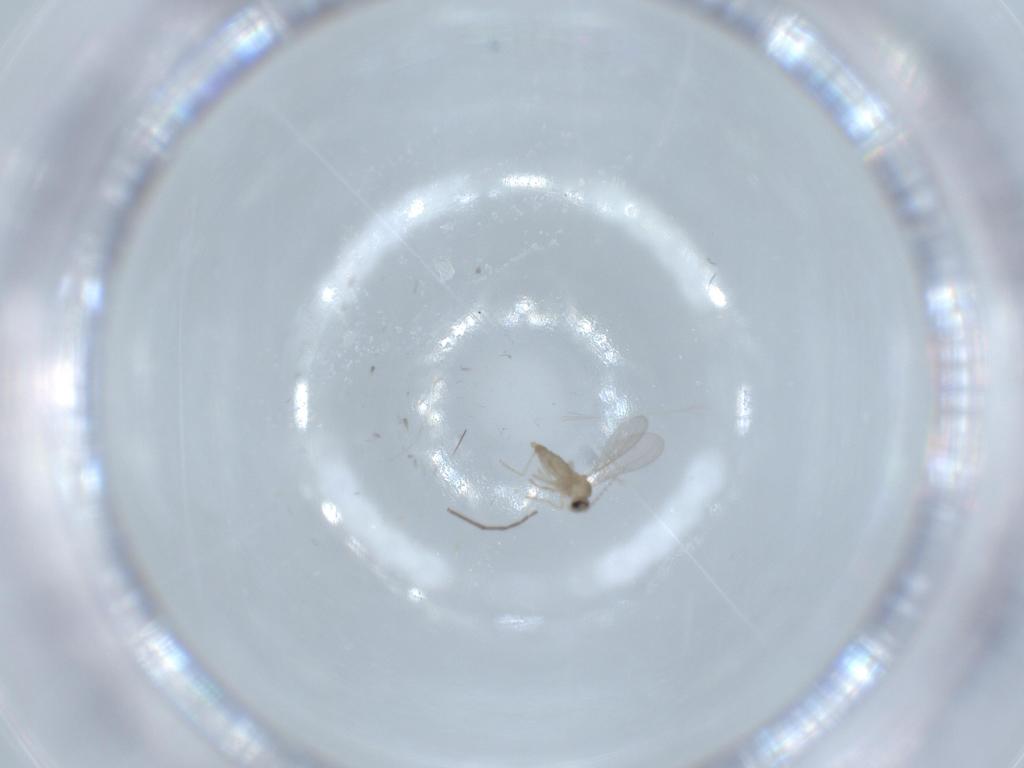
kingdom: Animalia
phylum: Arthropoda
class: Insecta
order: Diptera
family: Cecidomyiidae
